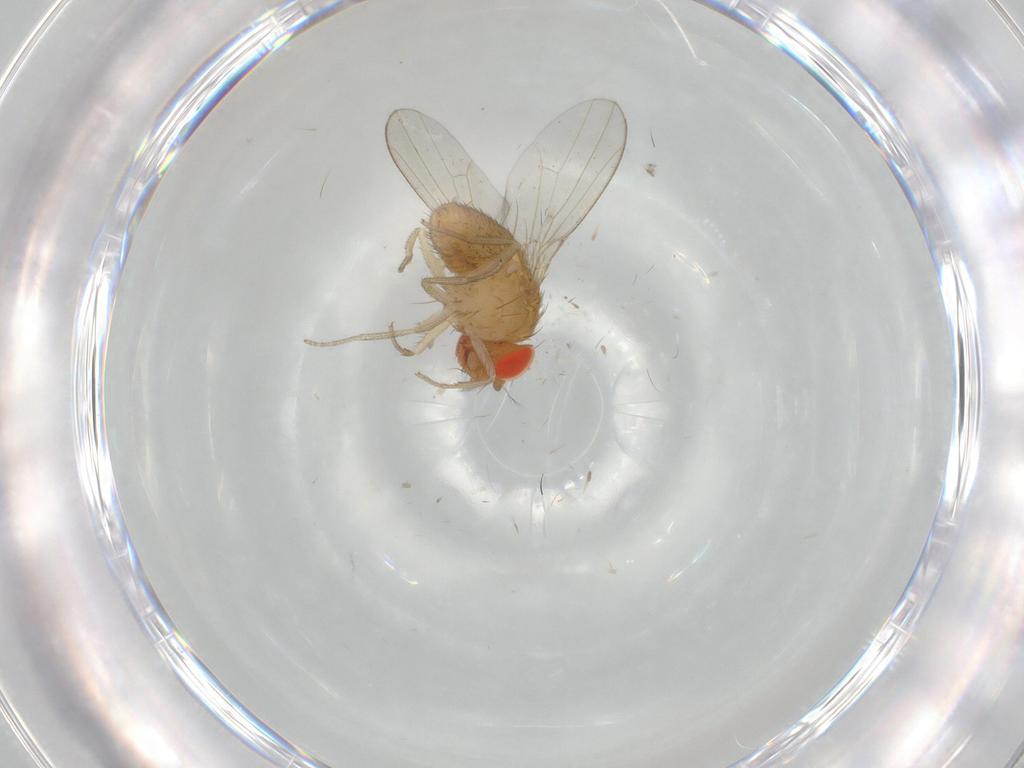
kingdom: Animalia
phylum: Arthropoda
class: Insecta
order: Diptera
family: Drosophilidae
